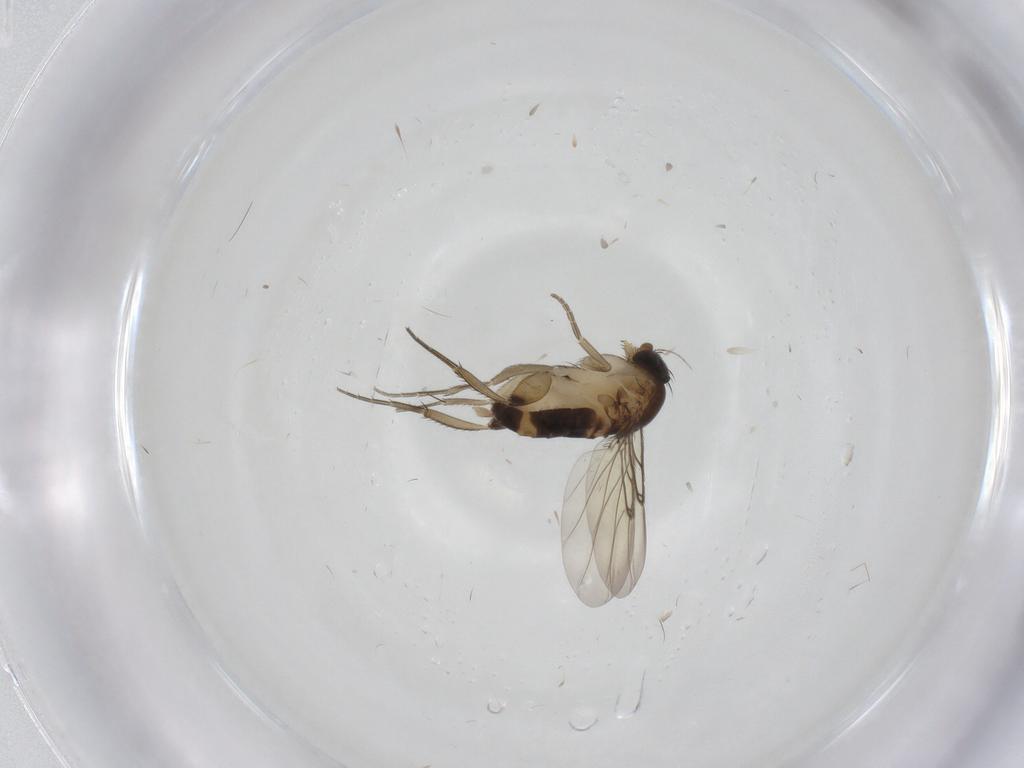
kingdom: Animalia
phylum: Arthropoda
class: Insecta
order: Diptera
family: Phoridae
